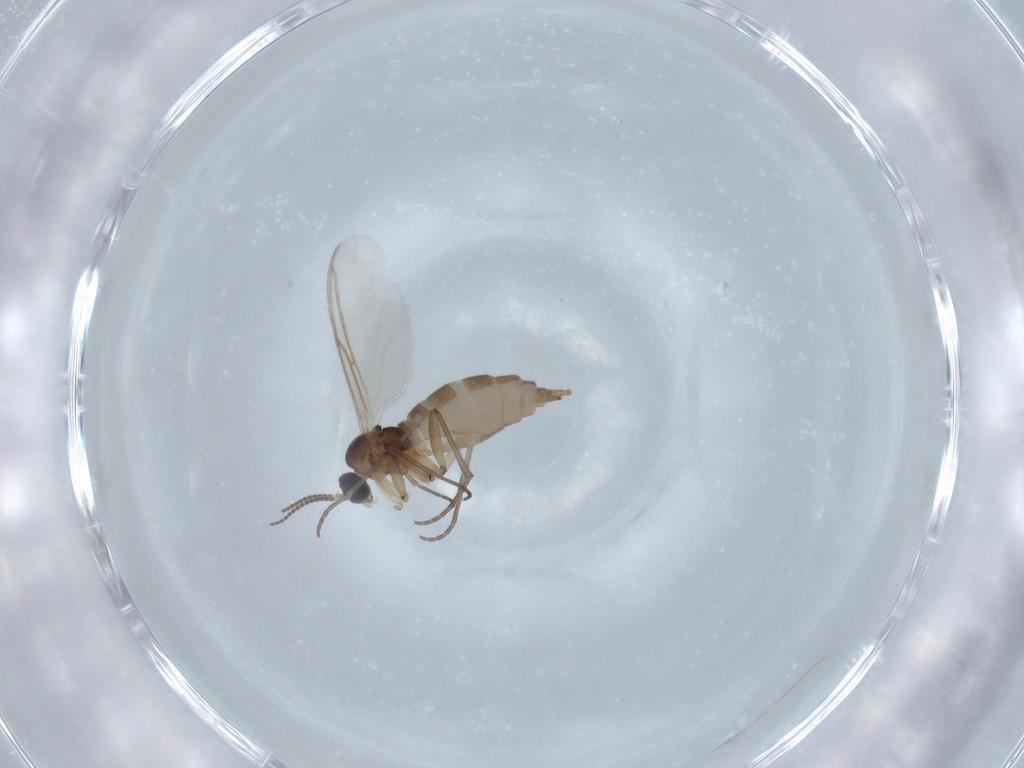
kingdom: Animalia
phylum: Arthropoda
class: Insecta
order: Diptera
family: Sciaridae
